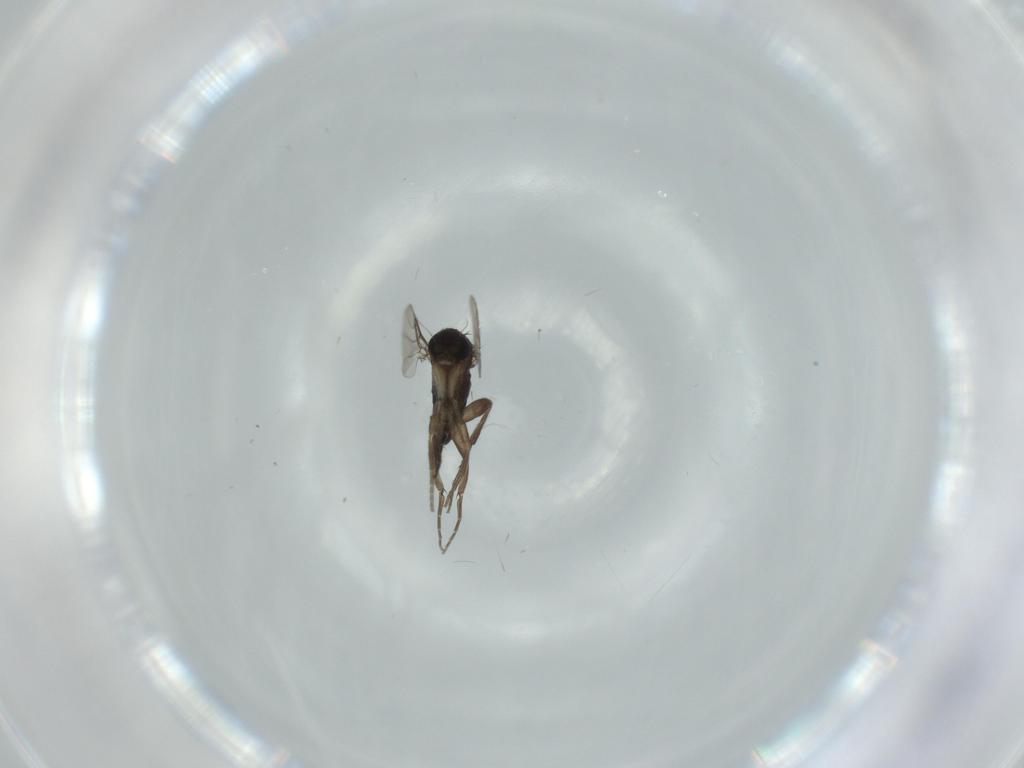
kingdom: Animalia
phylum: Arthropoda
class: Insecta
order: Diptera
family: Phoridae
